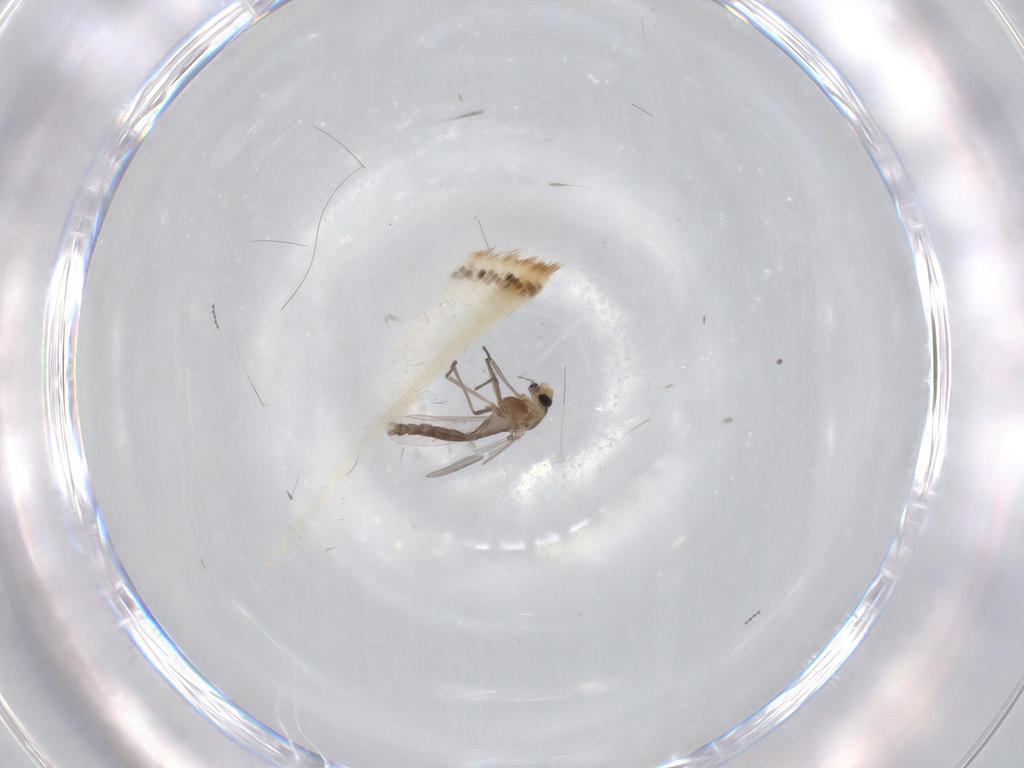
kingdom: Animalia
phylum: Arthropoda
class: Insecta
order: Diptera
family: Chironomidae
